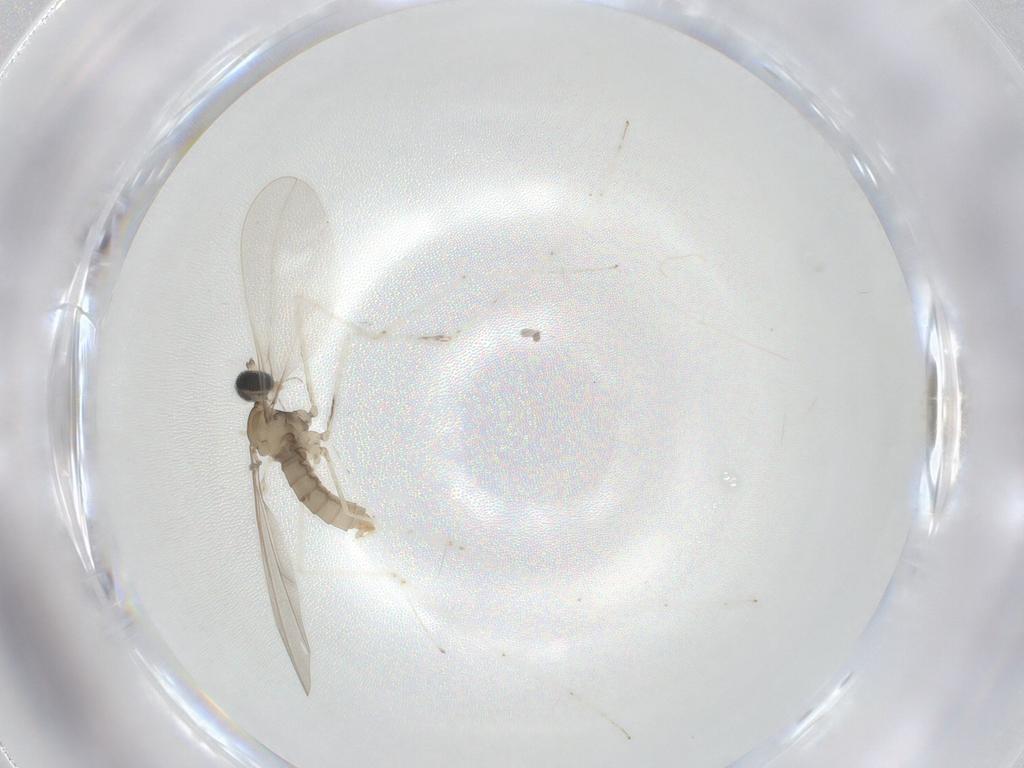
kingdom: Animalia
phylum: Arthropoda
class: Insecta
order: Diptera
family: Cecidomyiidae
